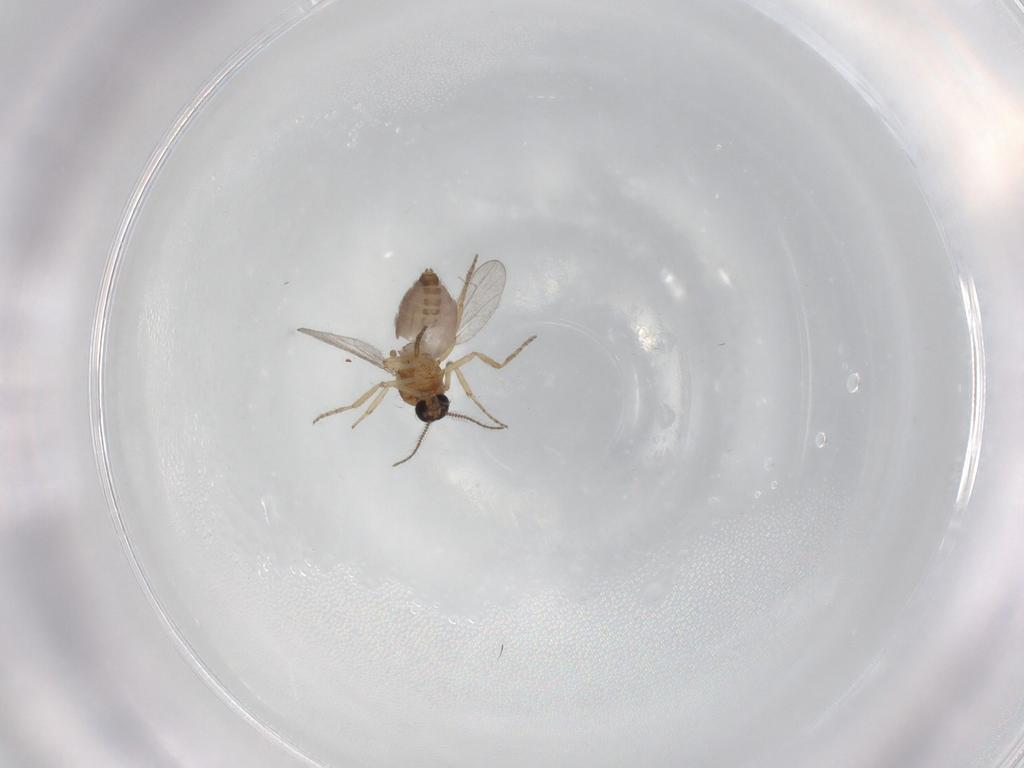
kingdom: Animalia
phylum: Arthropoda
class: Insecta
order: Diptera
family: Ceratopogonidae
